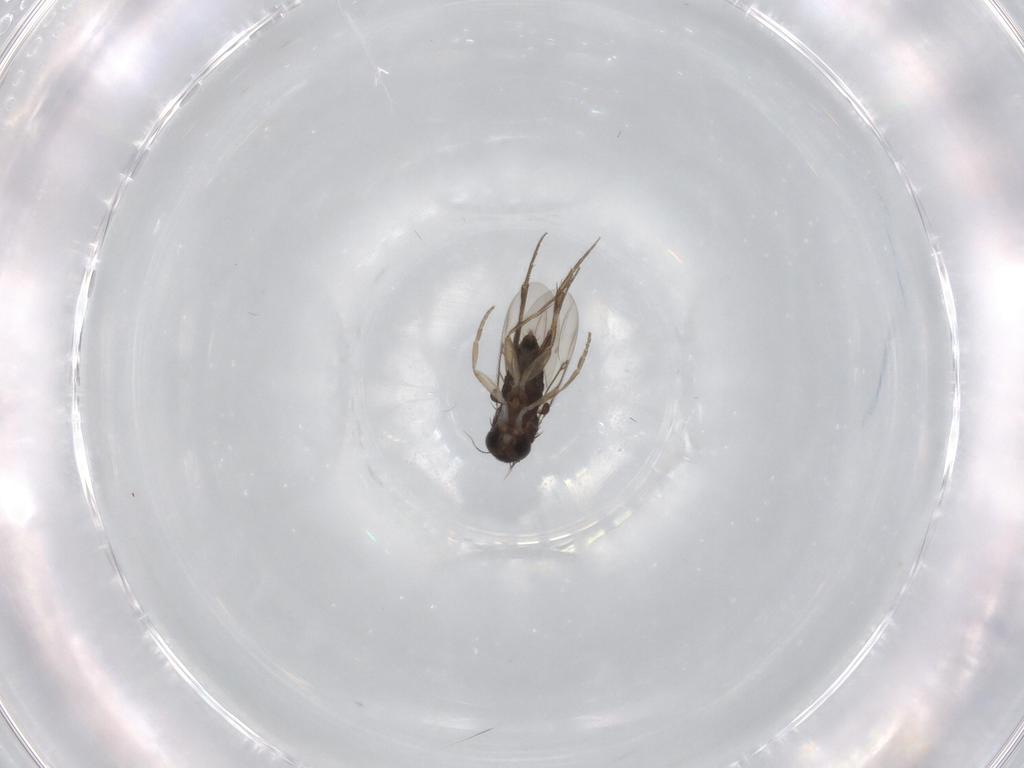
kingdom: Animalia
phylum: Arthropoda
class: Insecta
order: Diptera
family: Phoridae
